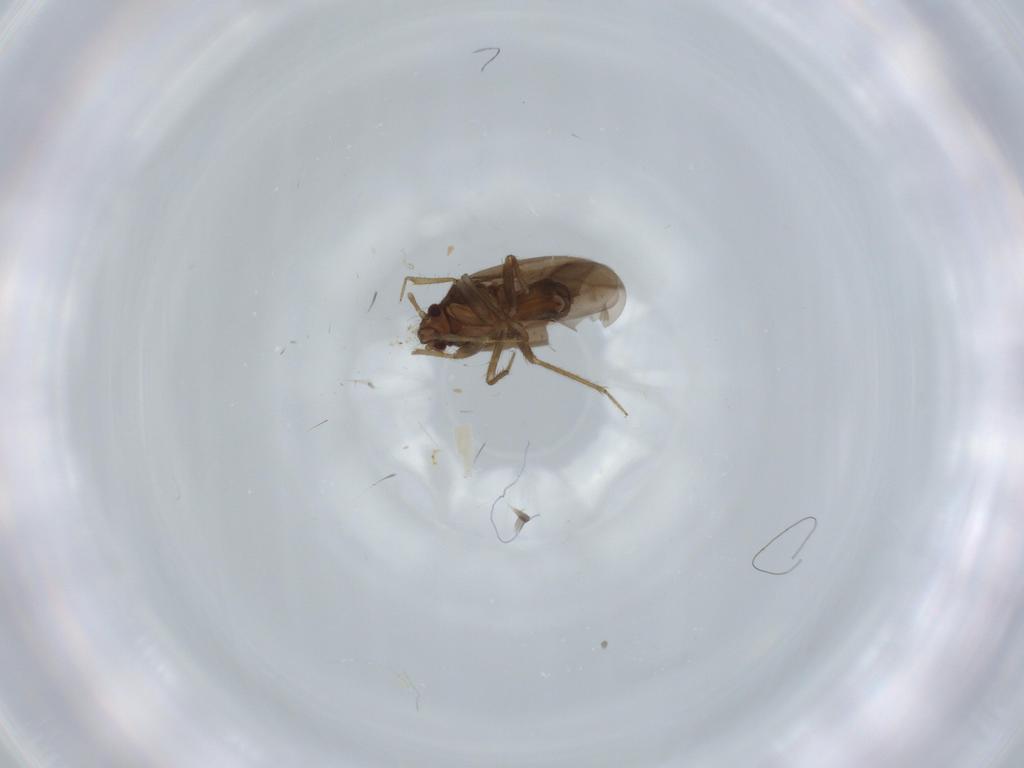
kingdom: Animalia
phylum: Arthropoda
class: Insecta
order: Hemiptera
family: Ceratocombidae
